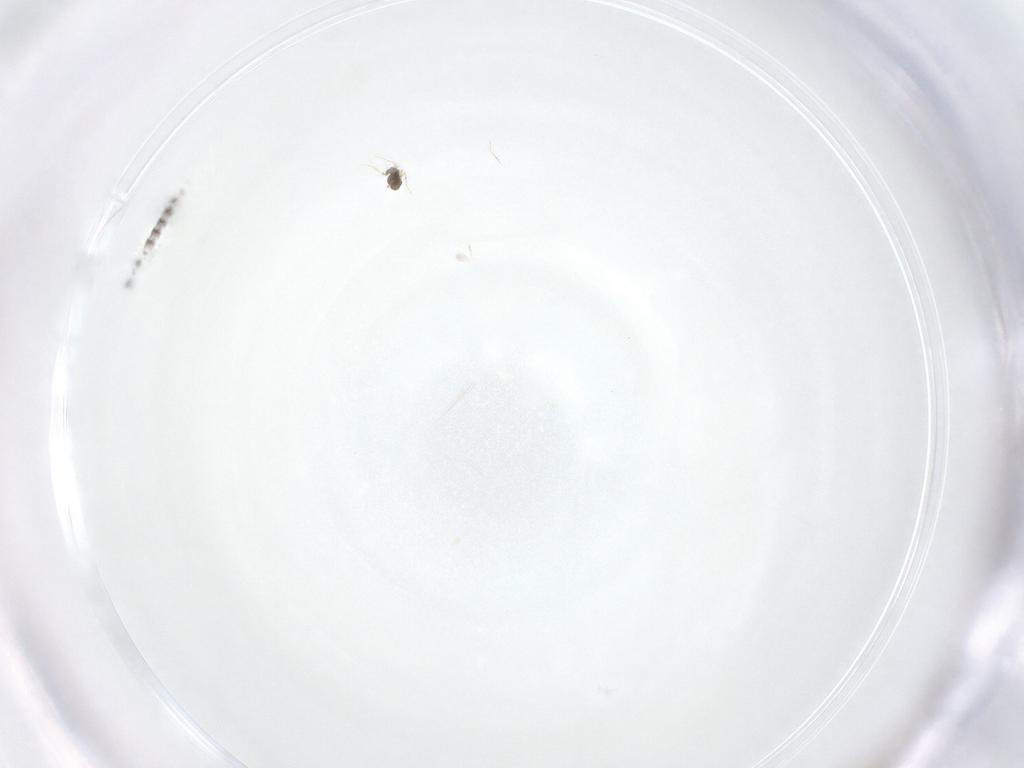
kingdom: Animalia
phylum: Arthropoda
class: Insecta
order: Diptera
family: Chironomidae
